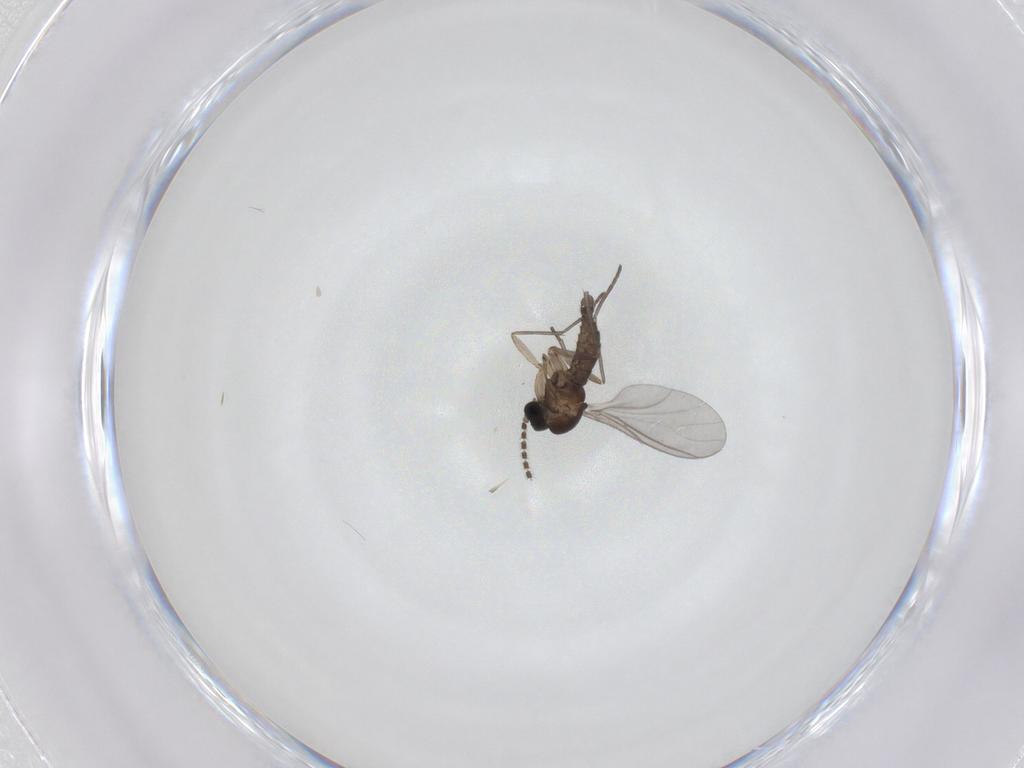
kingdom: Animalia
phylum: Arthropoda
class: Insecta
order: Diptera
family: Sciaridae
